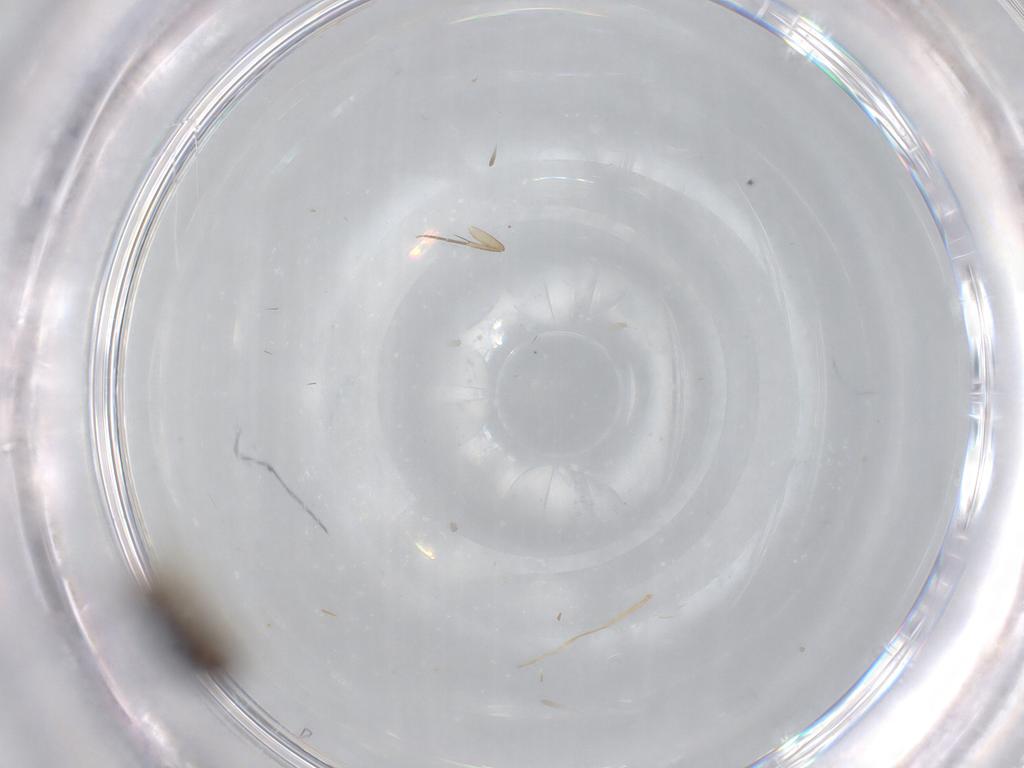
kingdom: Animalia
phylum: Arthropoda
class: Insecta
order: Diptera
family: Phoridae
